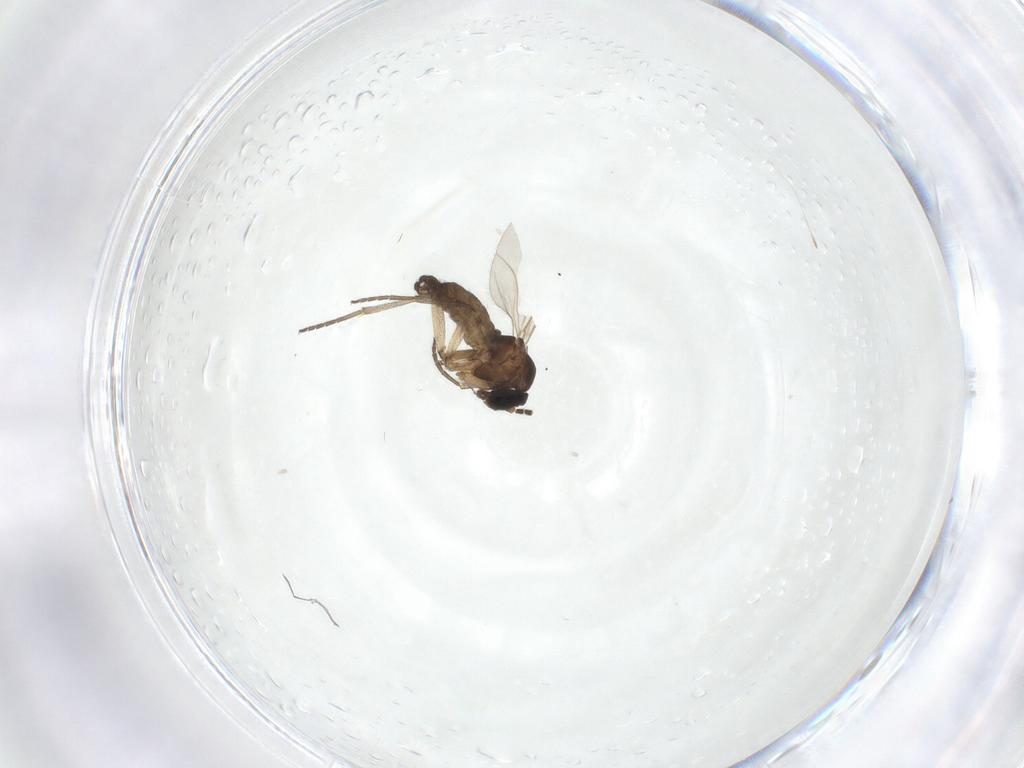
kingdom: Animalia
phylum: Arthropoda
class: Insecta
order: Diptera
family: Sciaridae
